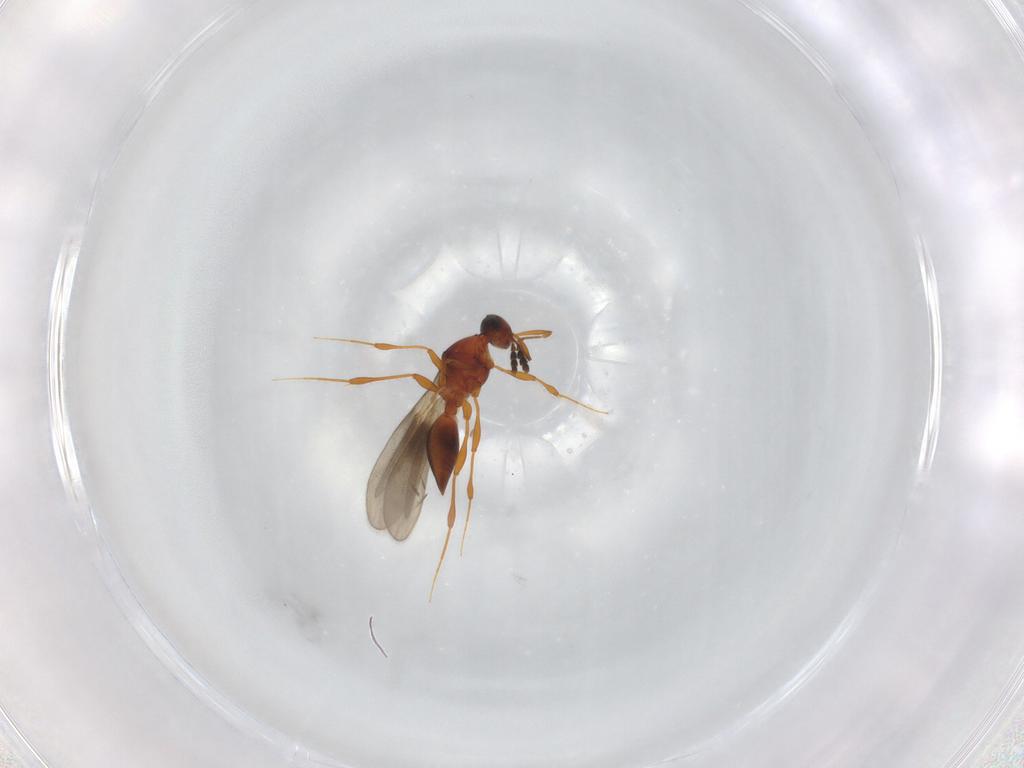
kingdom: Animalia
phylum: Arthropoda
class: Insecta
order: Hymenoptera
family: Platygastridae
